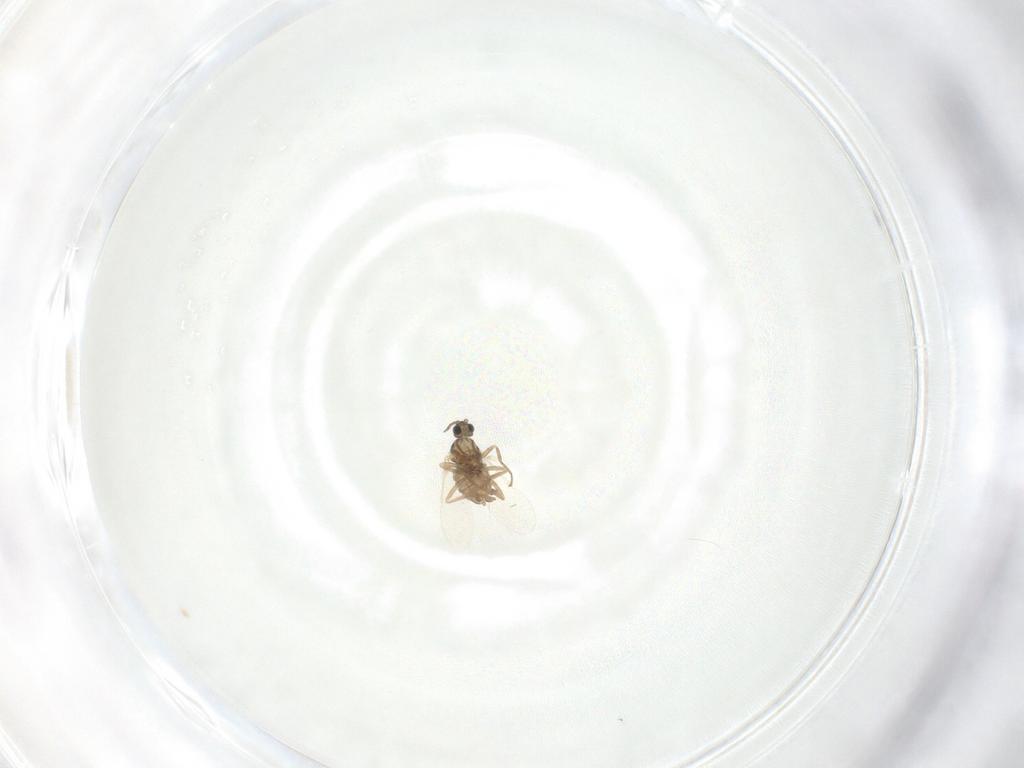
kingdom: Animalia
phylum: Arthropoda
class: Insecta
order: Diptera
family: Cecidomyiidae
